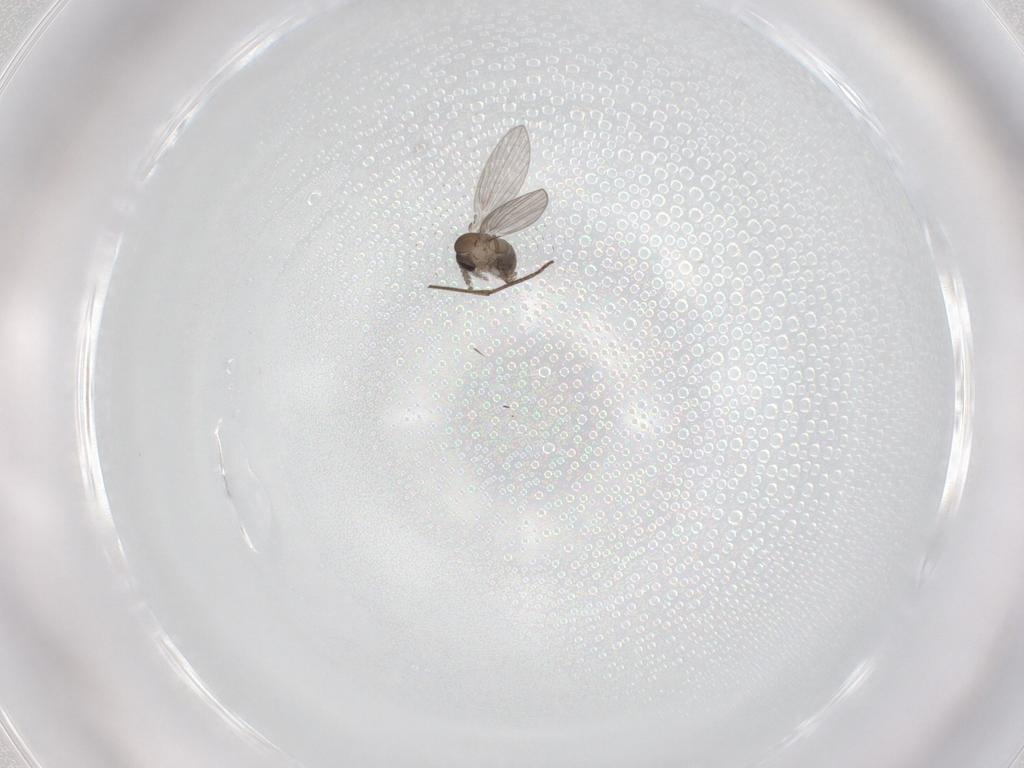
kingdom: Animalia
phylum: Arthropoda
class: Insecta
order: Diptera
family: Psychodidae
